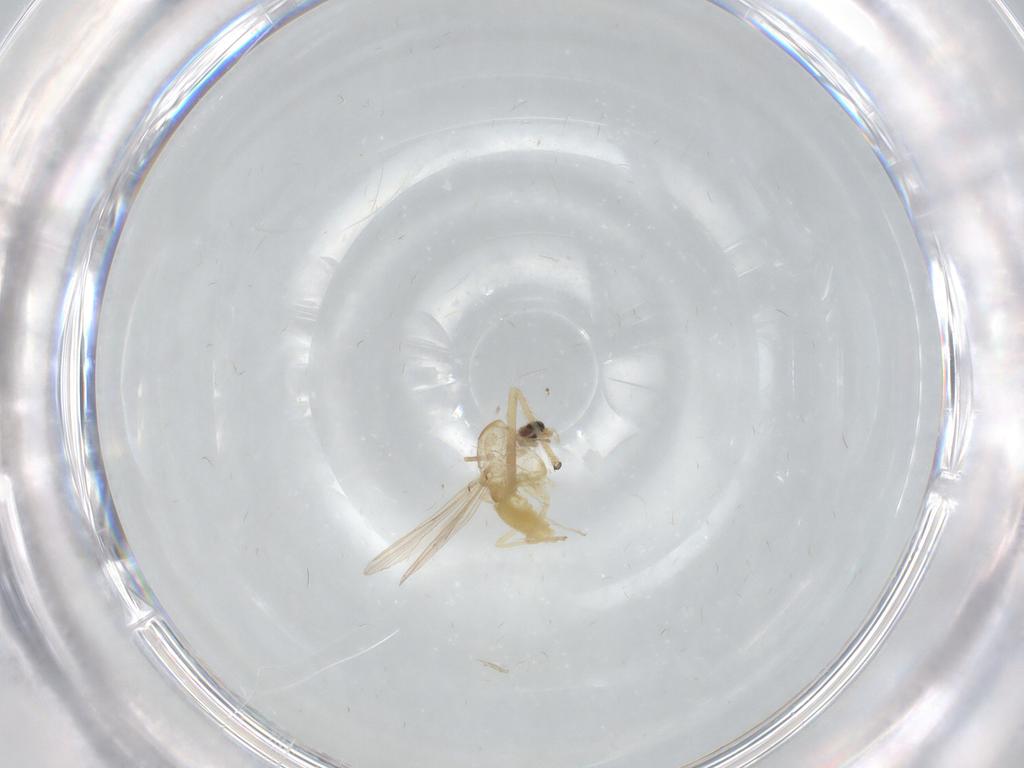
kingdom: Animalia
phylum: Arthropoda
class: Insecta
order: Diptera
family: Chironomidae
